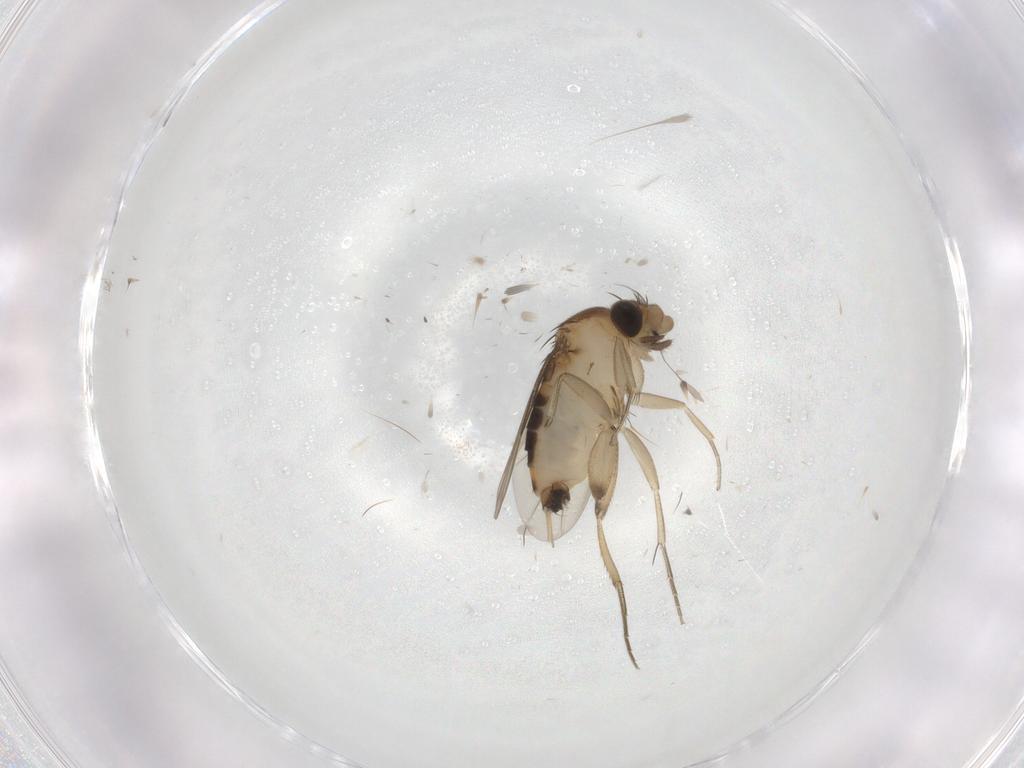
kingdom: Animalia
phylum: Arthropoda
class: Insecta
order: Diptera
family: Phoridae
